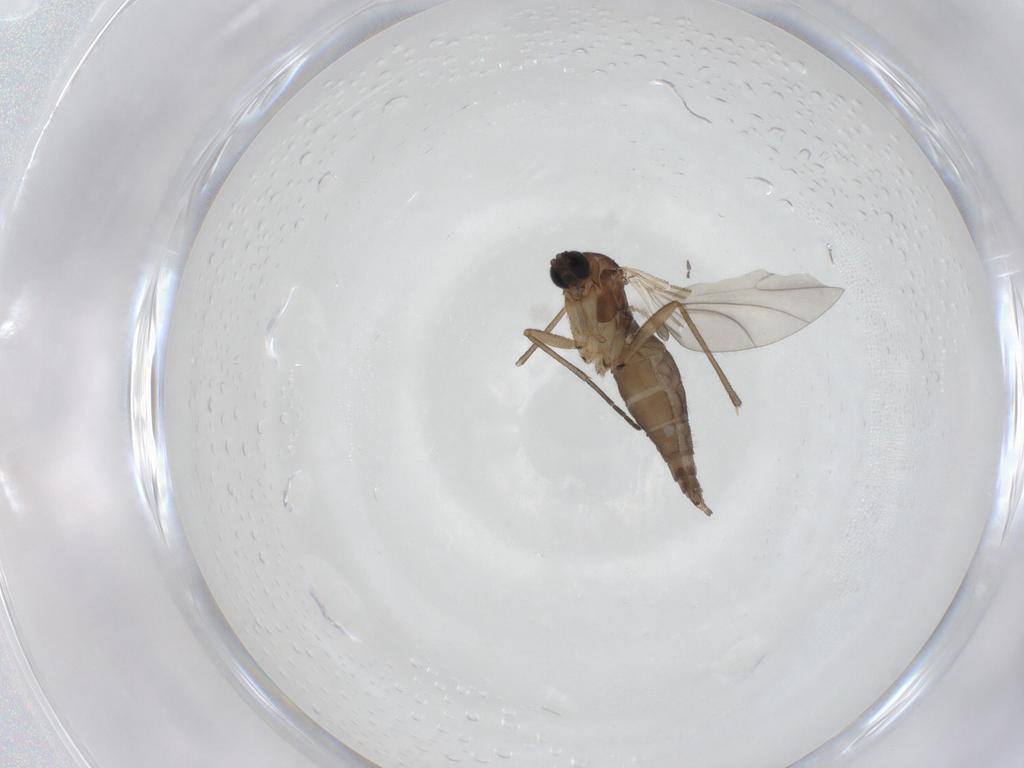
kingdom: Animalia
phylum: Arthropoda
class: Insecta
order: Diptera
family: Sciaridae
